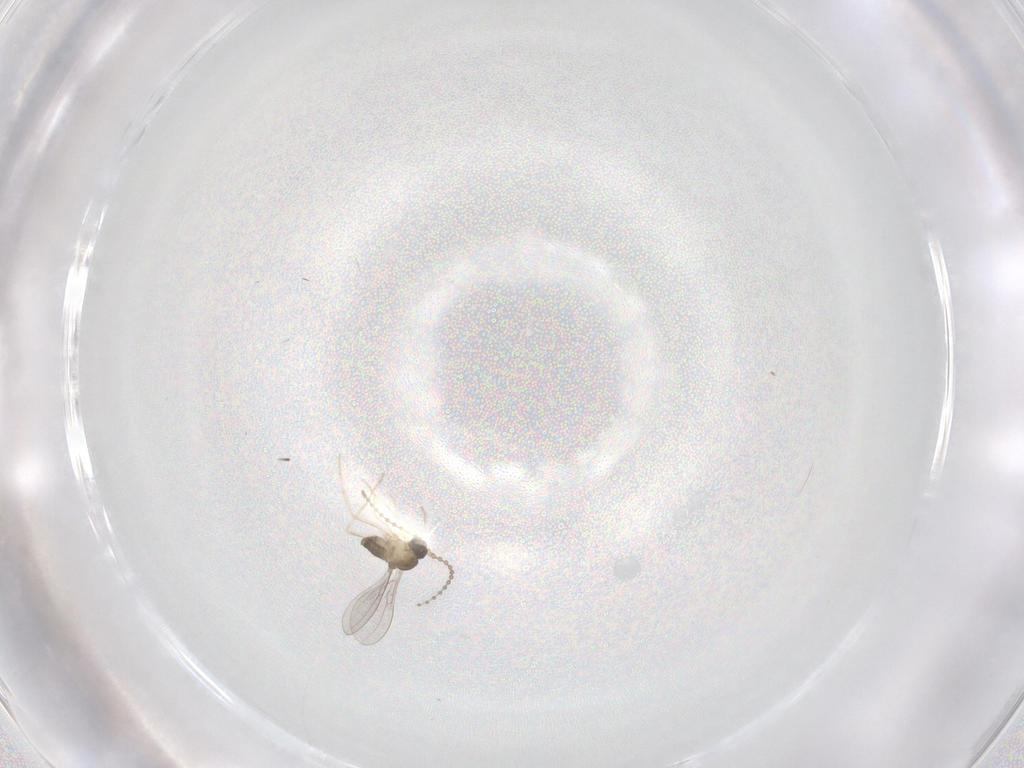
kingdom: Animalia
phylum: Arthropoda
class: Insecta
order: Diptera
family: Cecidomyiidae
